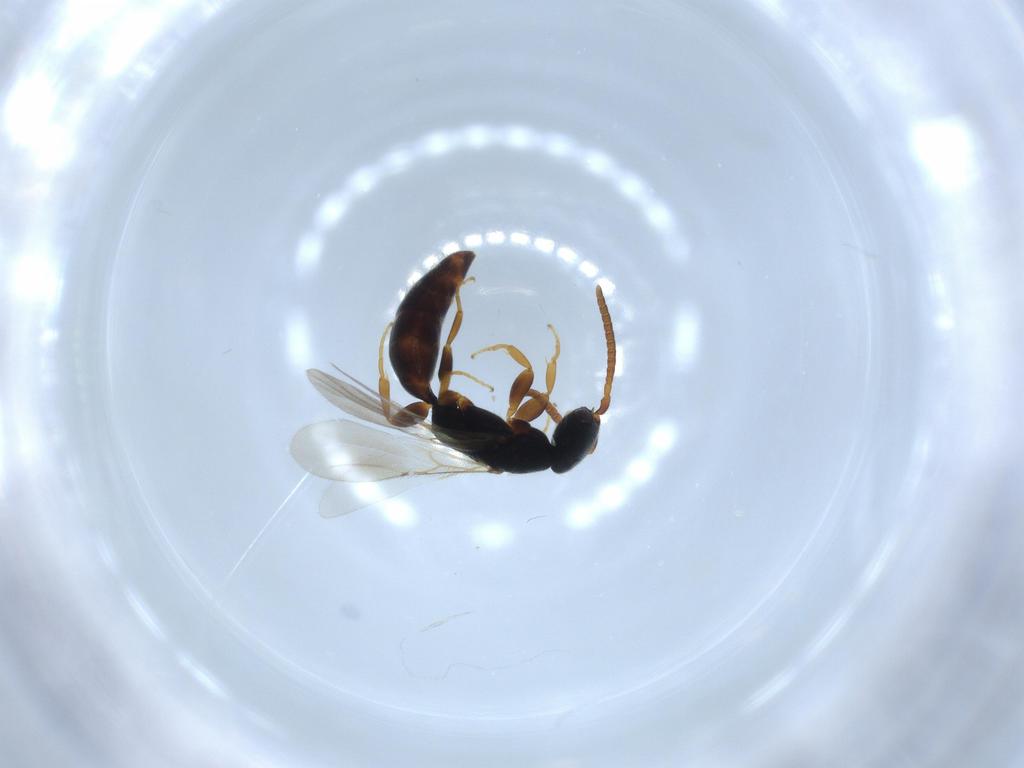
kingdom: Animalia
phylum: Arthropoda
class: Insecta
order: Hymenoptera
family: Bethylidae
